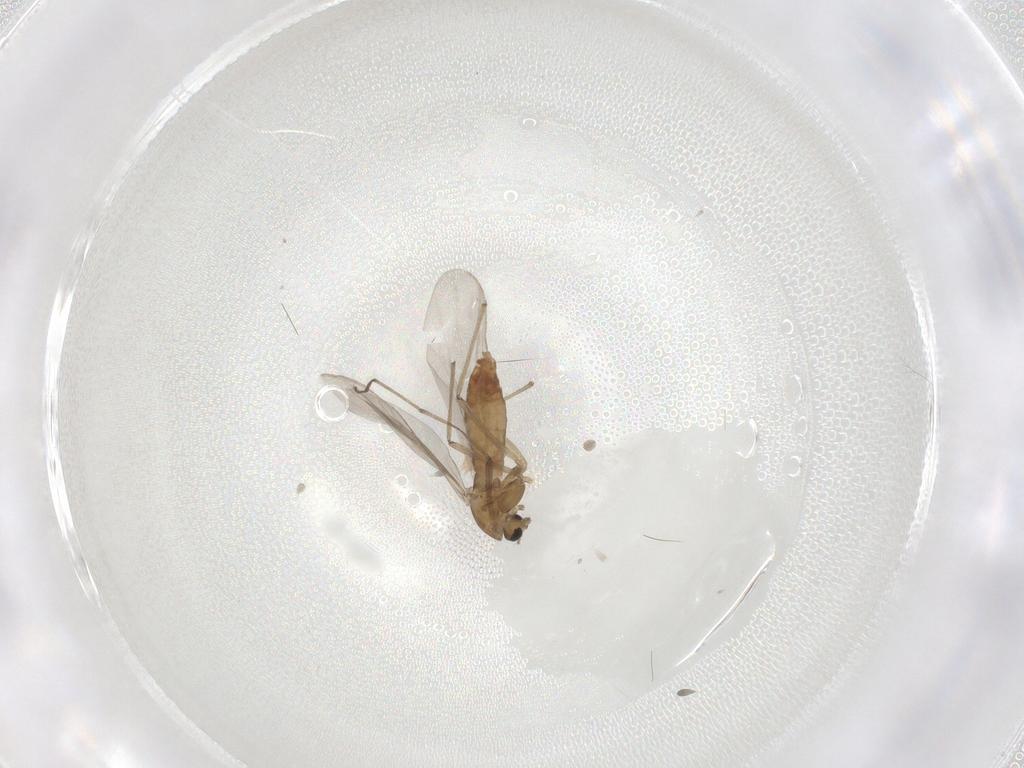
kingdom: Animalia
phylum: Arthropoda
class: Insecta
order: Diptera
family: Chironomidae
